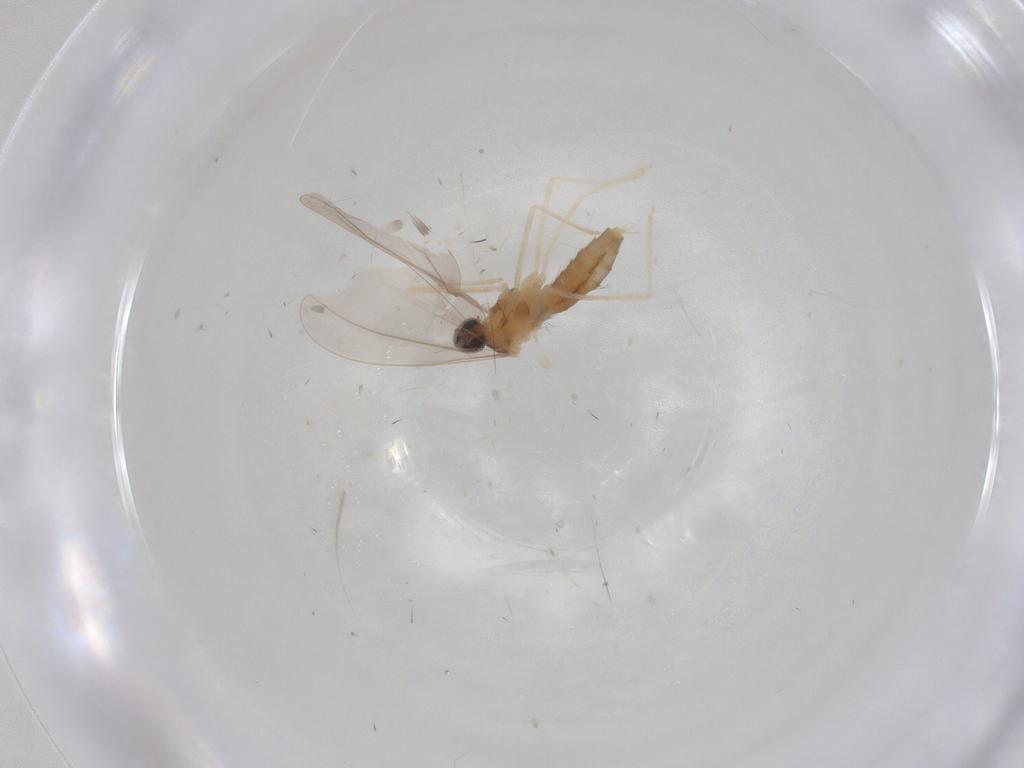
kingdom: Animalia
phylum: Arthropoda
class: Insecta
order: Diptera
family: Cecidomyiidae
